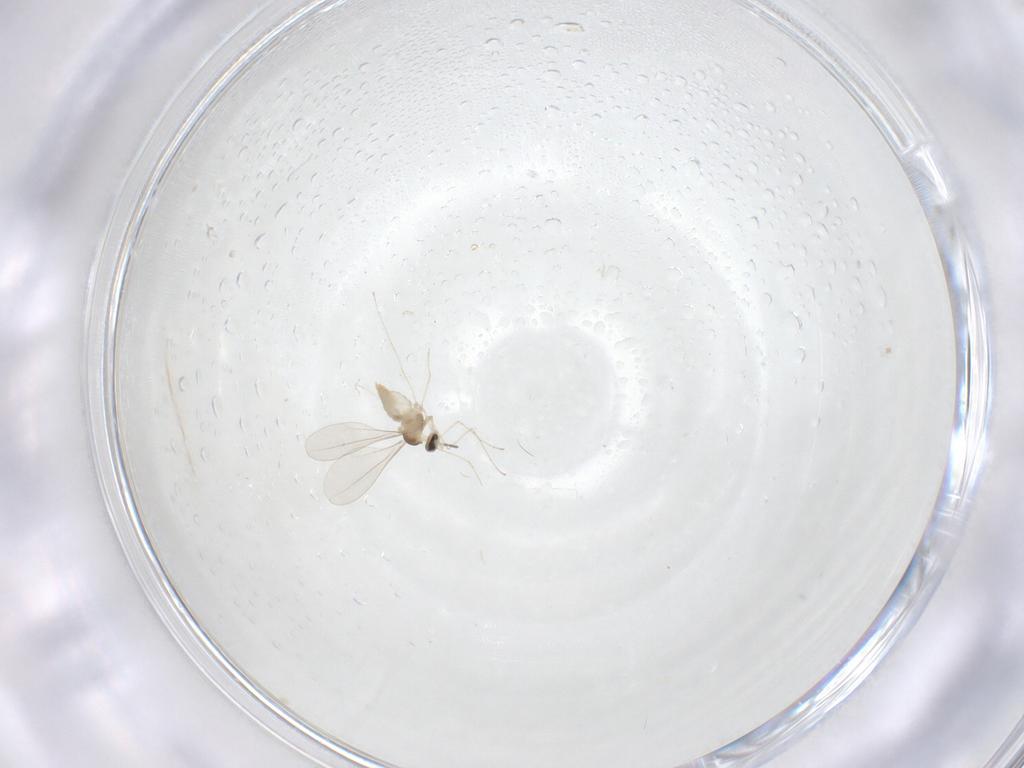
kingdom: Animalia
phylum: Arthropoda
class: Insecta
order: Diptera
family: Cecidomyiidae
